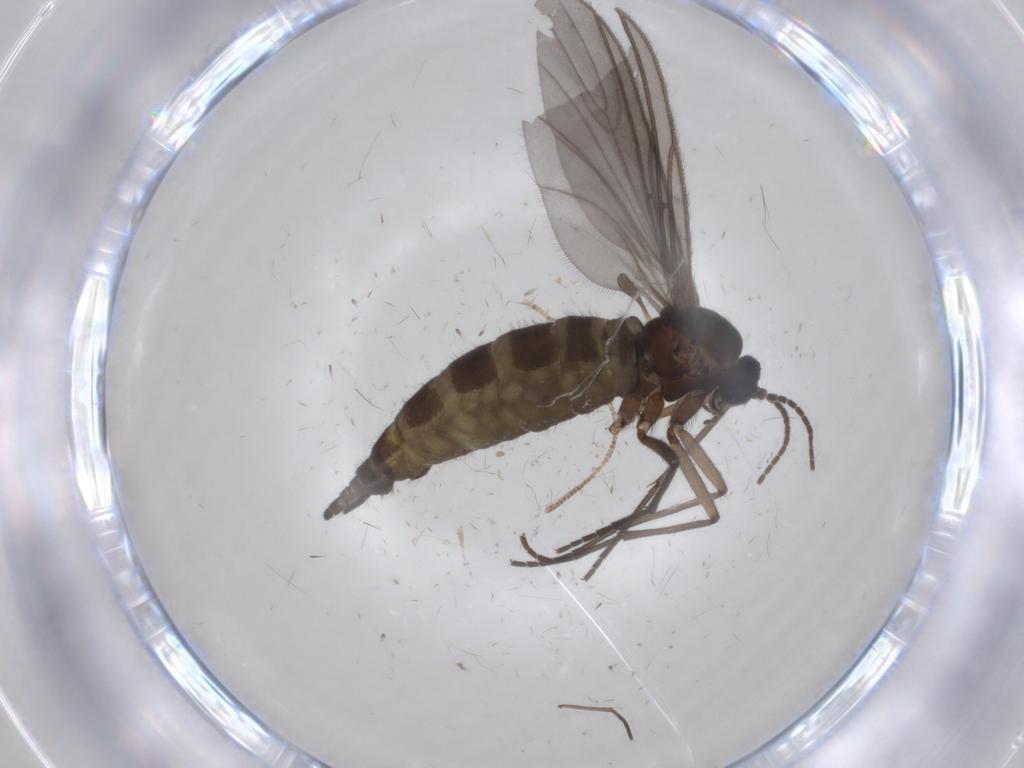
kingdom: Animalia
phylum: Arthropoda
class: Insecta
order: Diptera
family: Sciaridae
